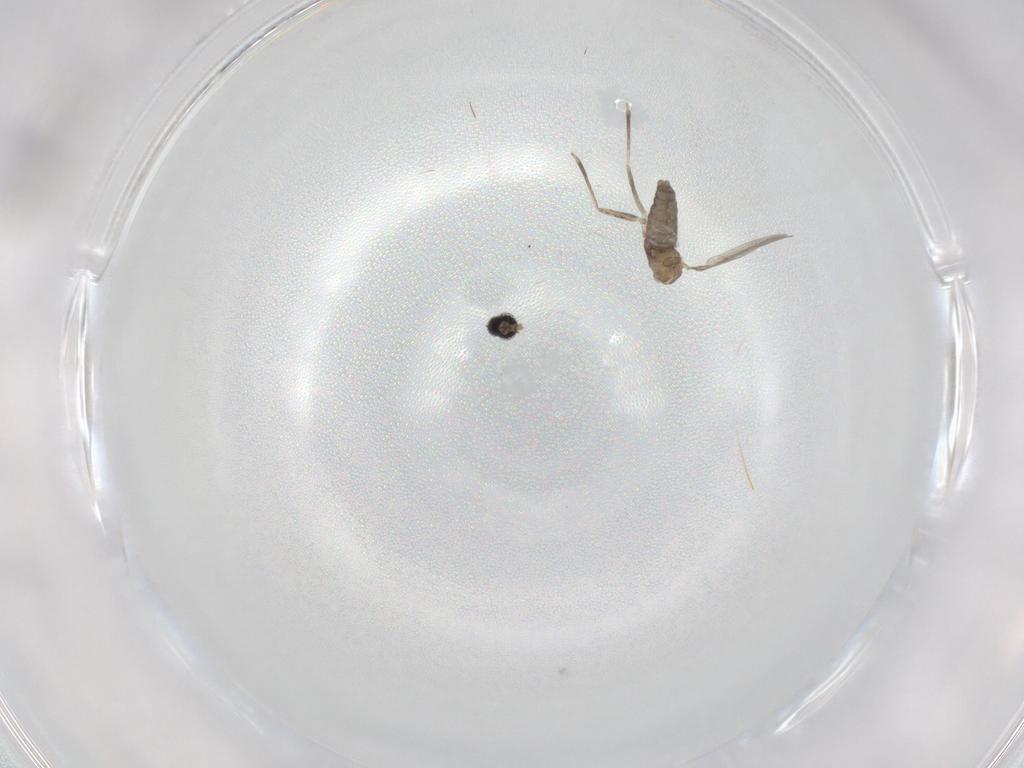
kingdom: Animalia
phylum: Arthropoda
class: Insecta
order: Diptera
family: Cecidomyiidae
